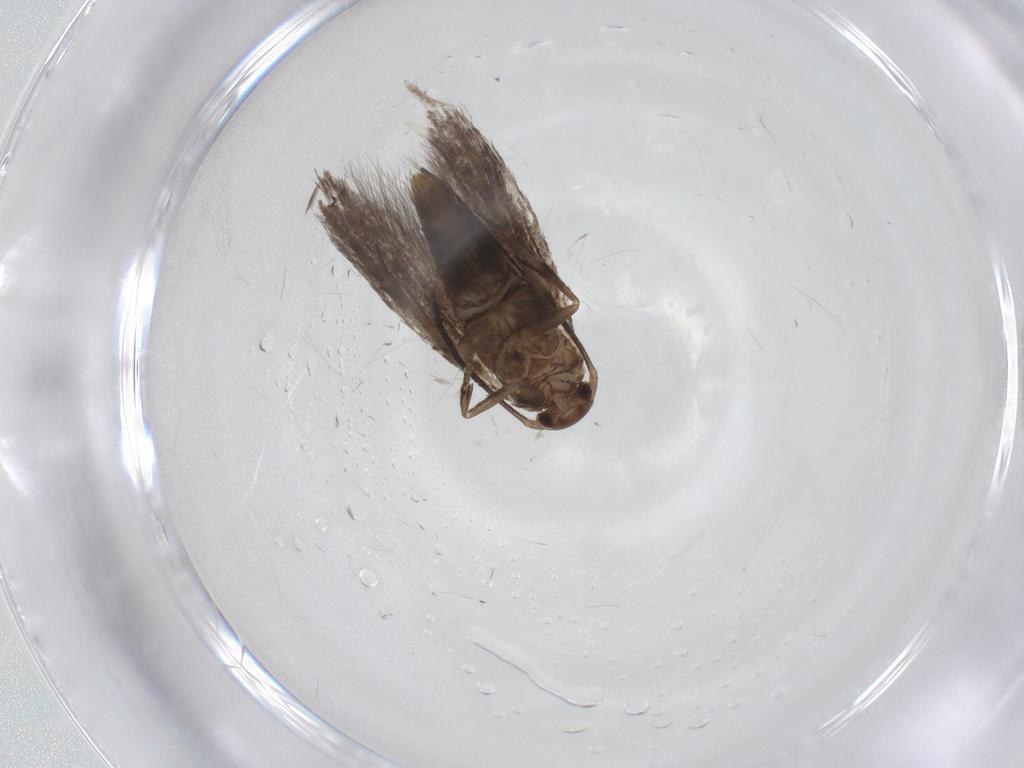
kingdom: Animalia
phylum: Arthropoda
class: Insecta
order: Lepidoptera
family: Elachistidae
